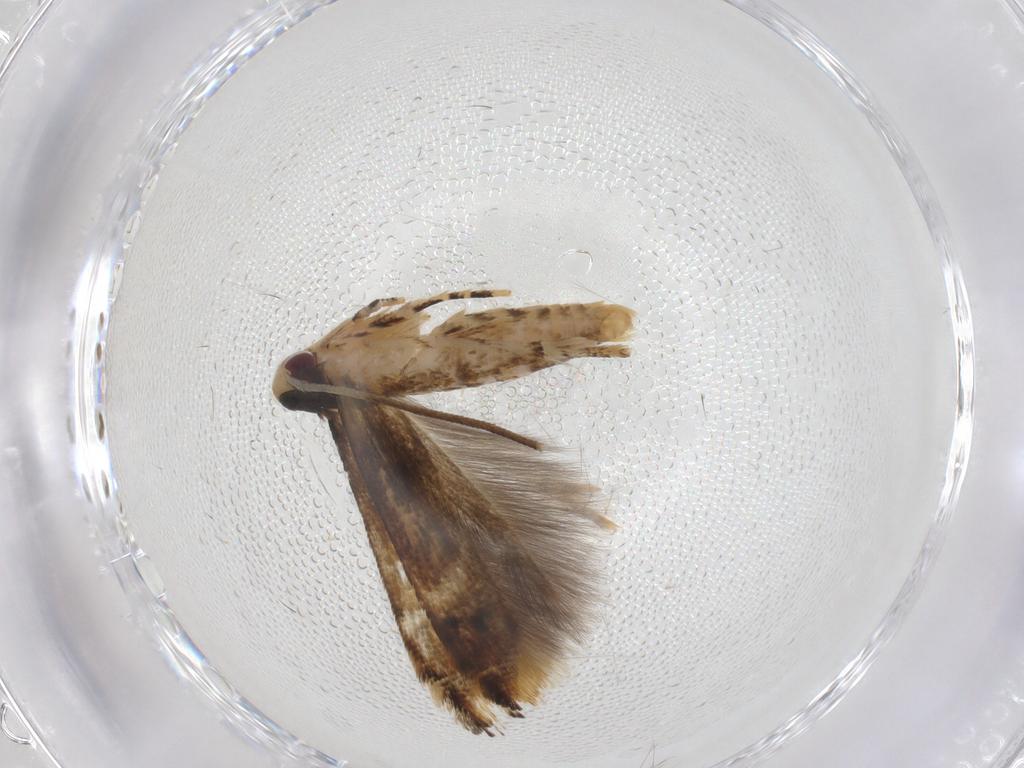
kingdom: Animalia
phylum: Arthropoda
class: Insecta
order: Lepidoptera
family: Momphidae
